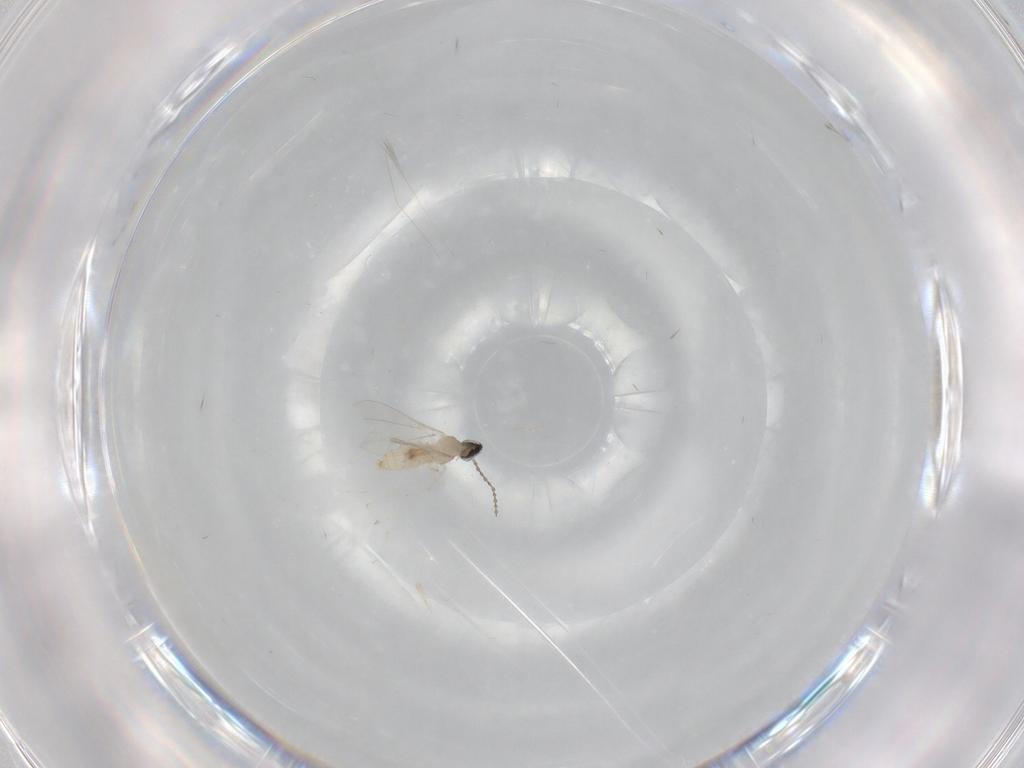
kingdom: Animalia
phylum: Arthropoda
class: Insecta
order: Diptera
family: Cecidomyiidae
